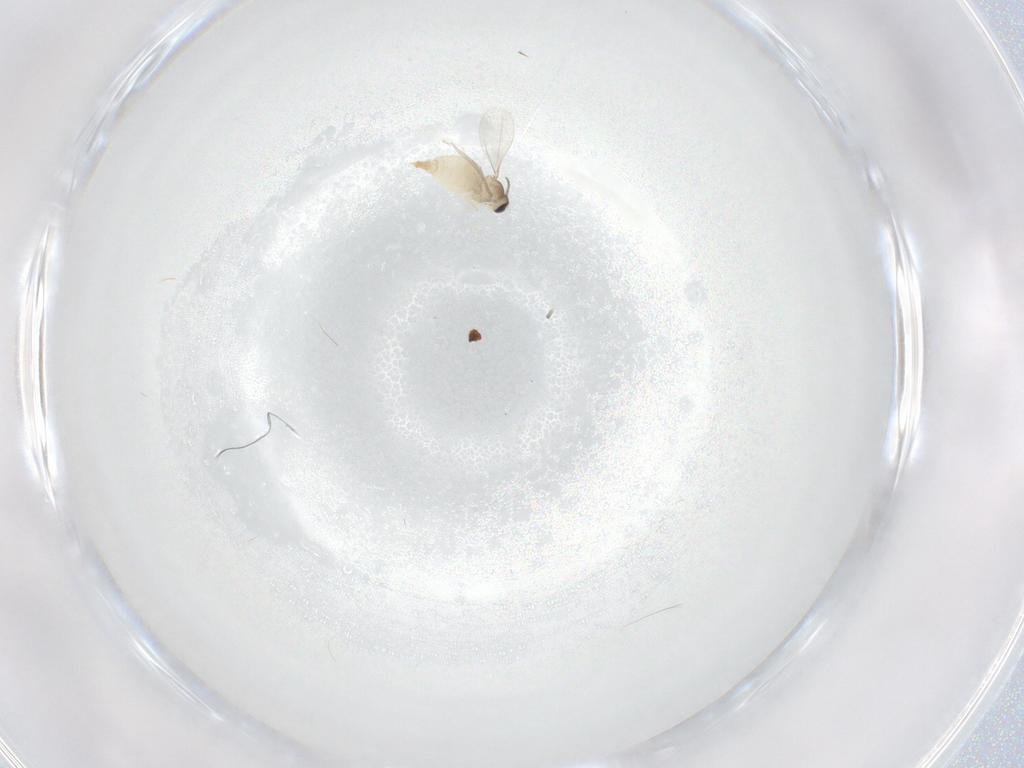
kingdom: Animalia
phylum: Arthropoda
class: Insecta
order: Diptera
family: Cecidomyiidae
